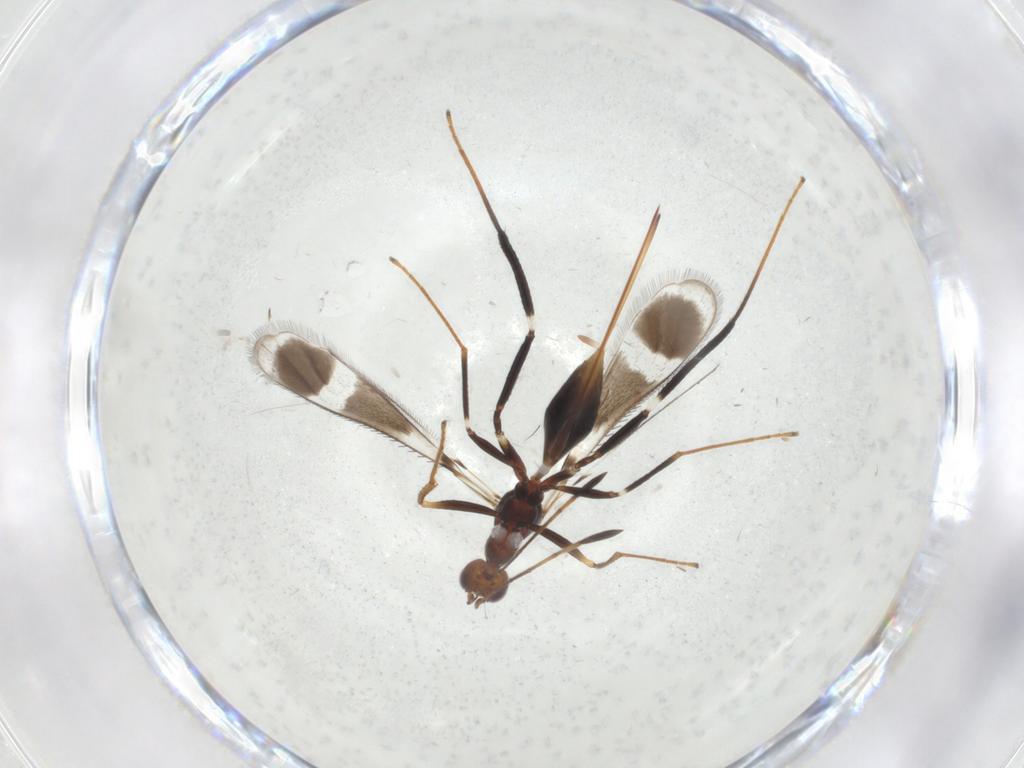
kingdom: Animalia
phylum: Arthropoda
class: Insecta
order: Hymenoptera
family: Mymaridae
